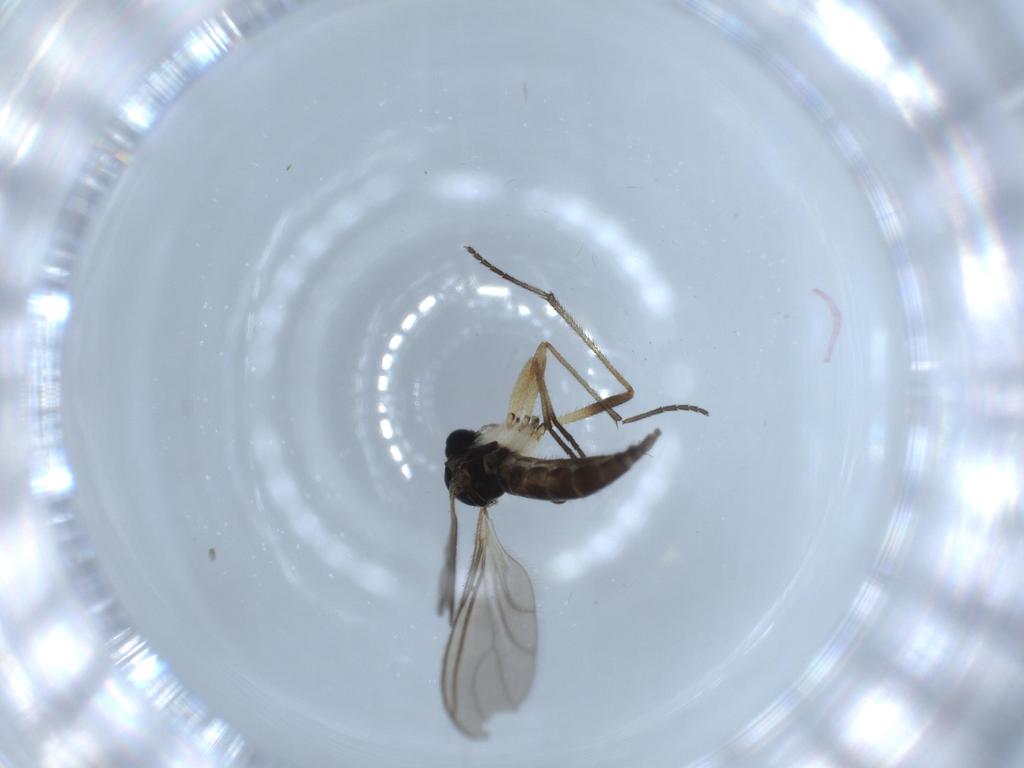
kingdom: Animalia
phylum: Arthropoda
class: Insecta
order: Diptera
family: Sciaridae
